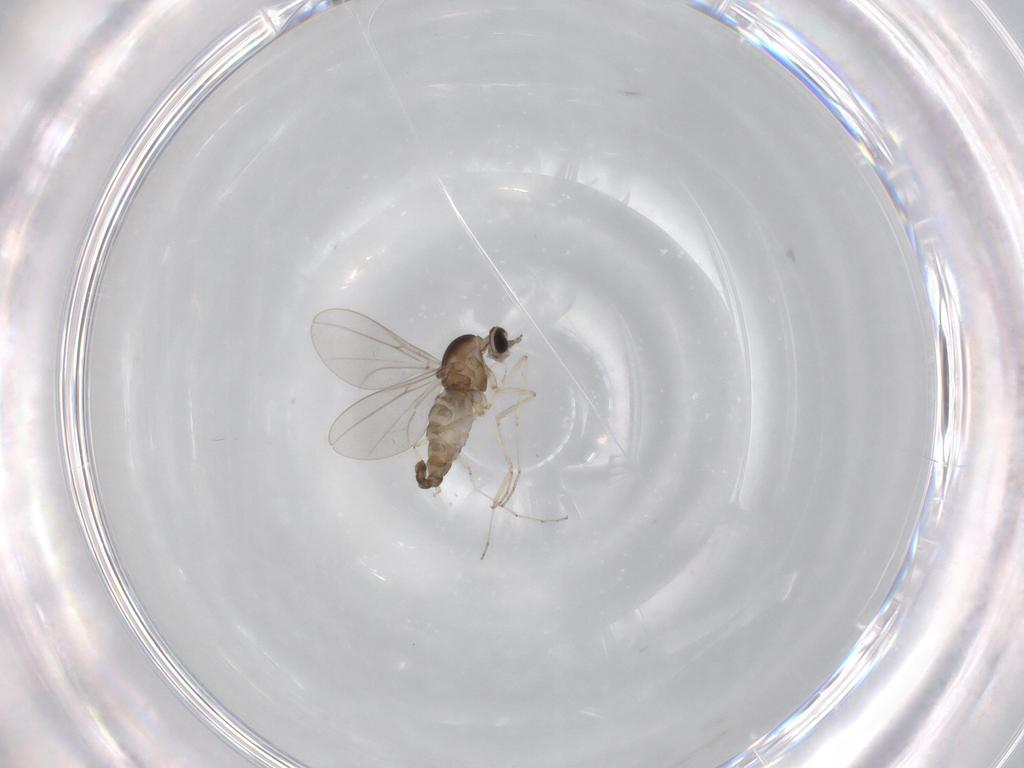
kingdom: Animalia
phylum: Arthropoda
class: Insecta
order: Diptera
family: Cecidomyiidae
